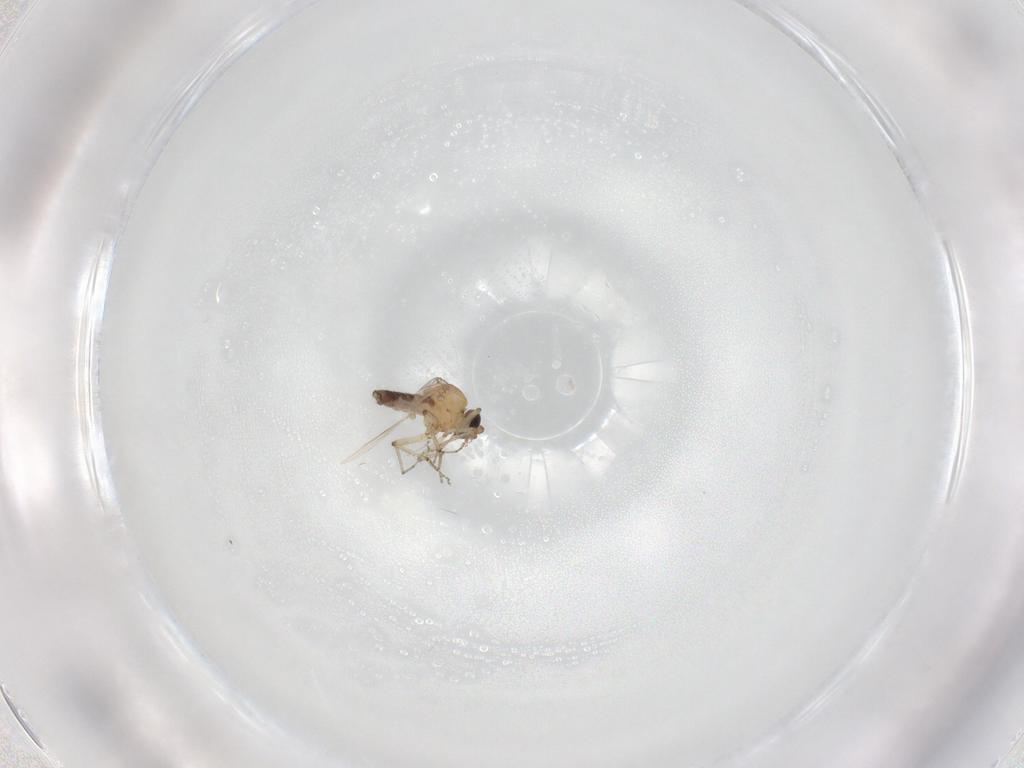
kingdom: Animalia
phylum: Arthropoda
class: Insecta
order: Diptera
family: Ceratopogonidae
